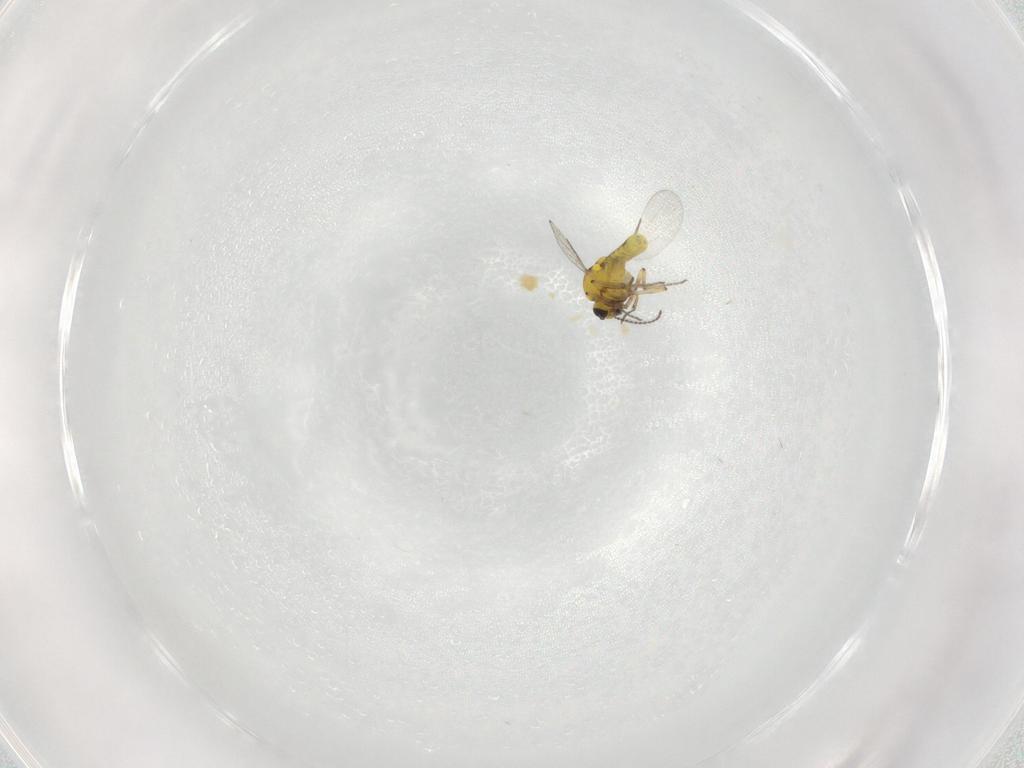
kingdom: Animalia
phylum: Arthropoda
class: Insecta
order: Diptera
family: Ceratopogonidae
